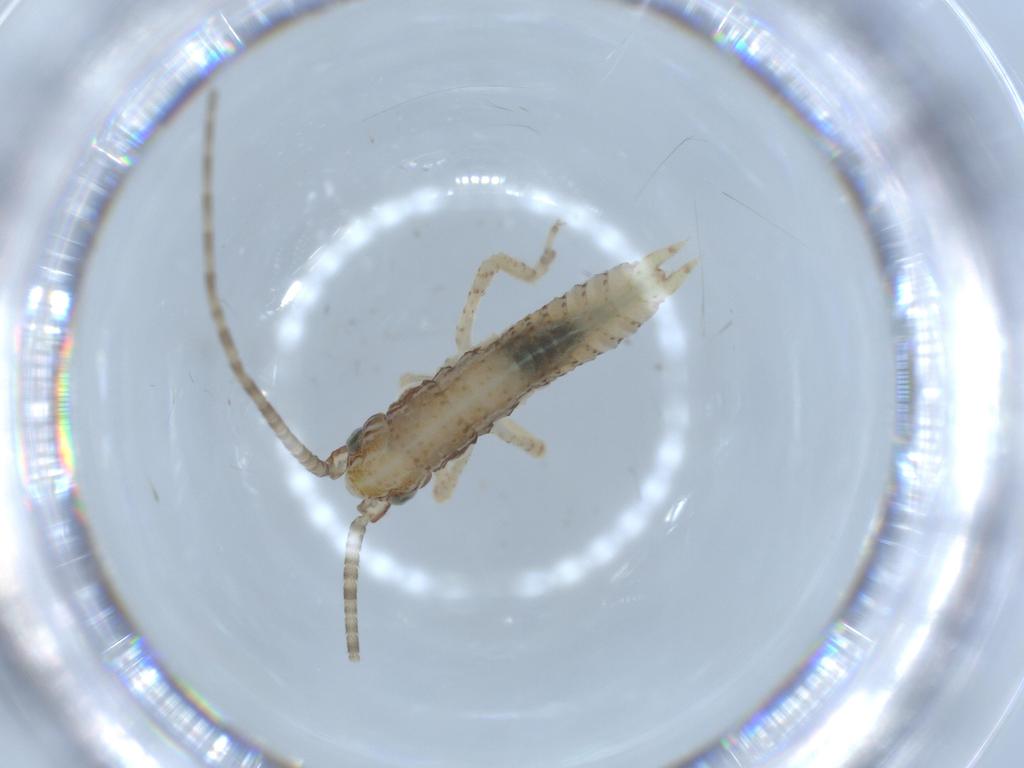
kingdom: Animalia
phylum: Arthropoda
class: Insecta
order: Orthoptera
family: Gryllidae
